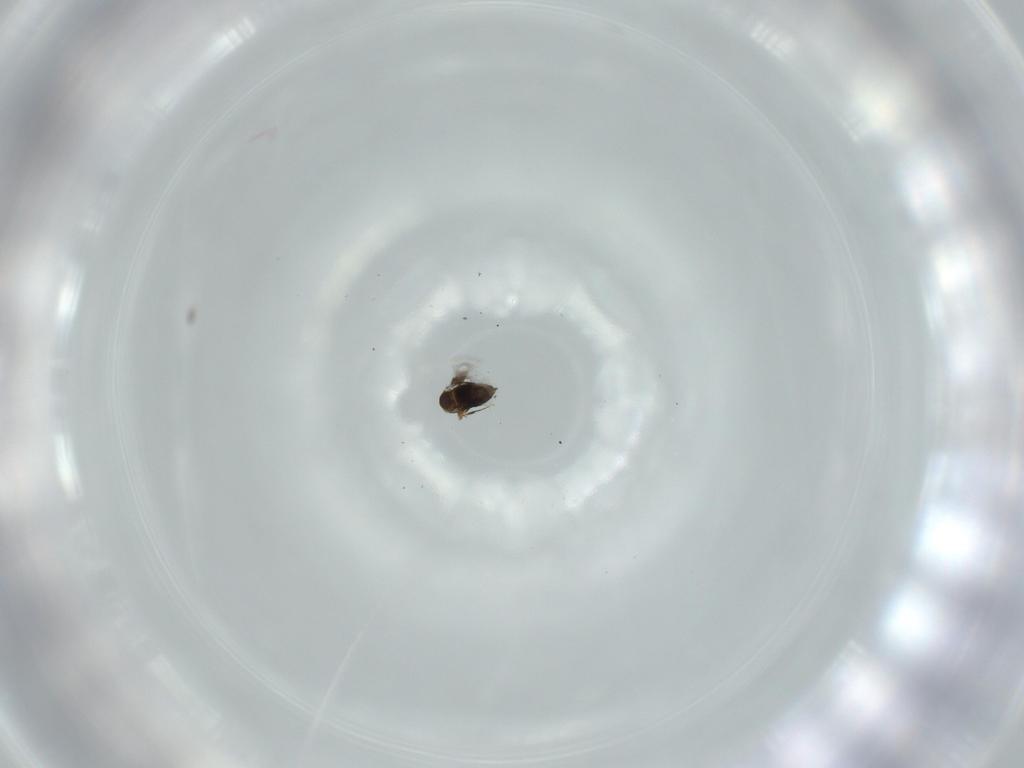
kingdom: Animalia
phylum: Arthropoda
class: Insecta
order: Hymenoptera
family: Signiphoridae
